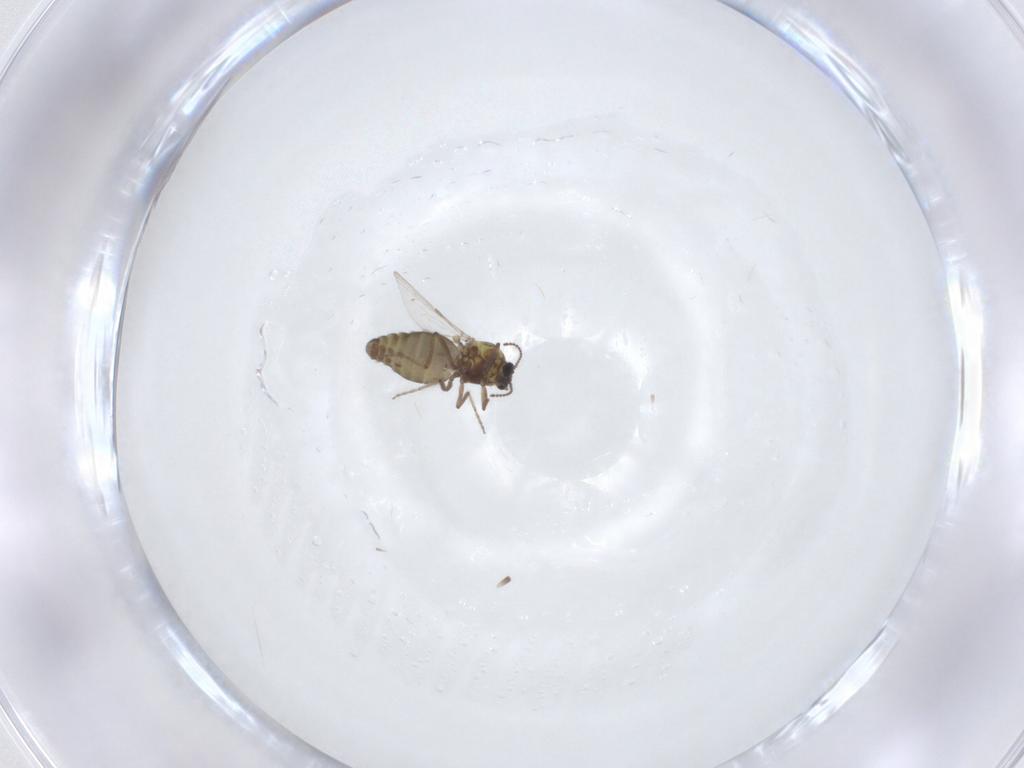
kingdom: Animalia
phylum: Arthropoda
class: Insecta
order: Diptera
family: Ceratopogonidae
